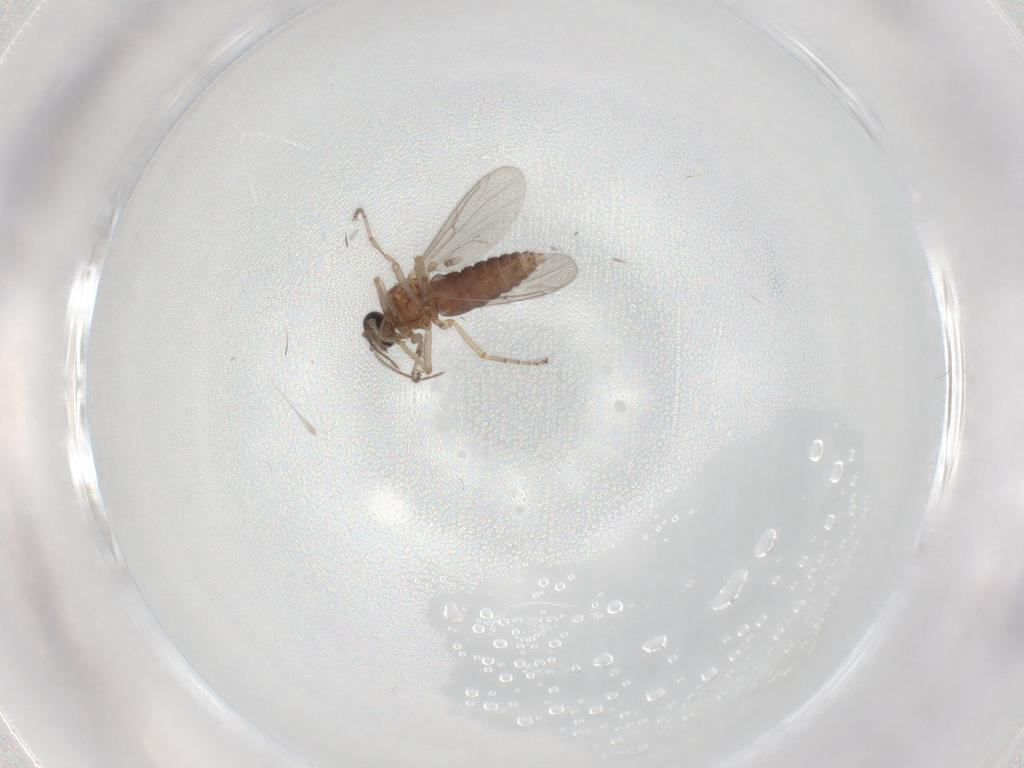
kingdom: Animalia
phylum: Arthropoda
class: Insecta
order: Diptera
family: Ceratopogonidae
